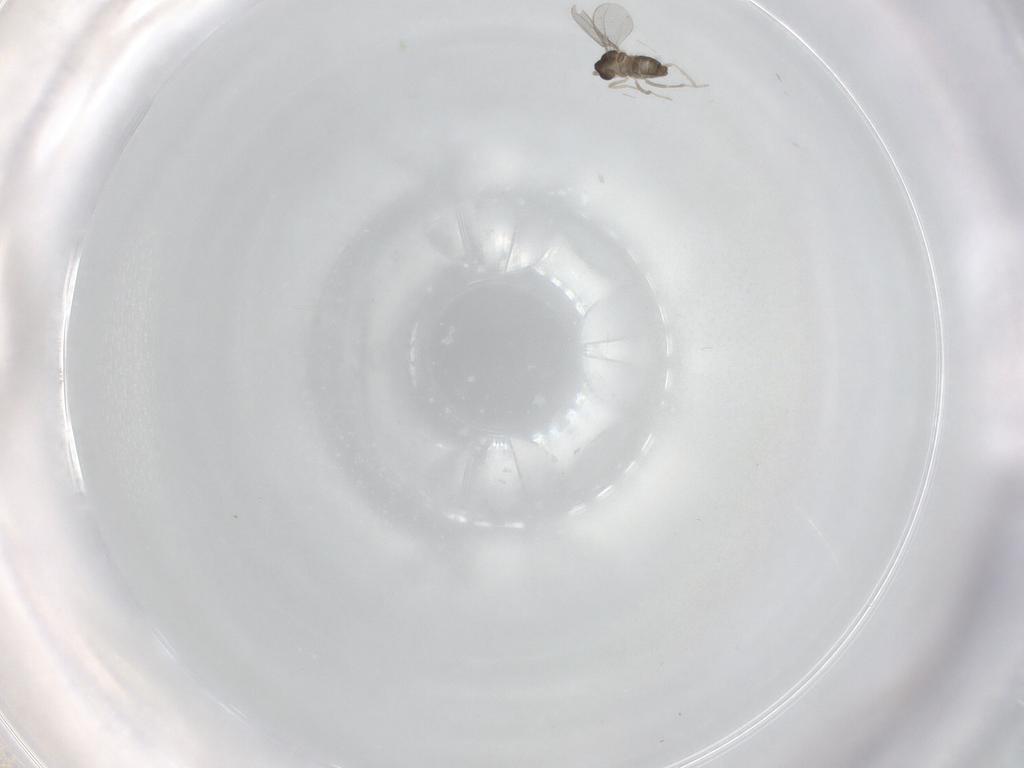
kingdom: Animalia
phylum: Arthropoda
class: Insecta
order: Diptera
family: Cecidomyiidae
